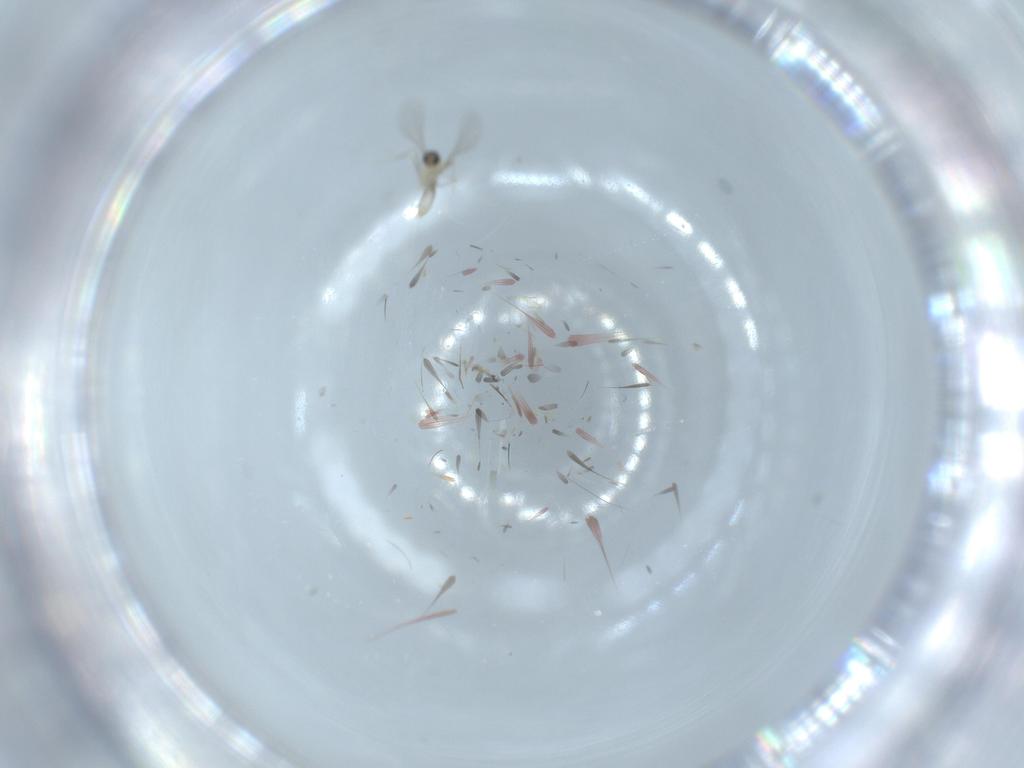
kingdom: Animalia
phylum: Arthropoda
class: Insecta
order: Diptera
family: Cecidomyiidae
